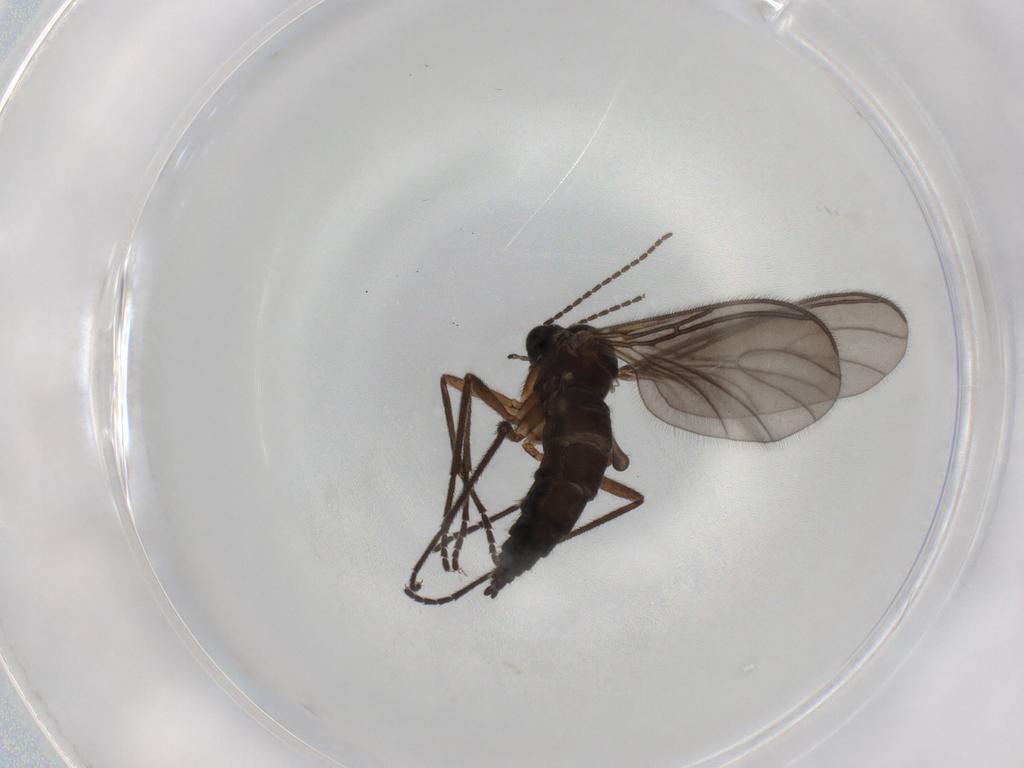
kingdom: Animalia
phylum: Arthropoda
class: Insecta
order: Diptera
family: Sciaridae
